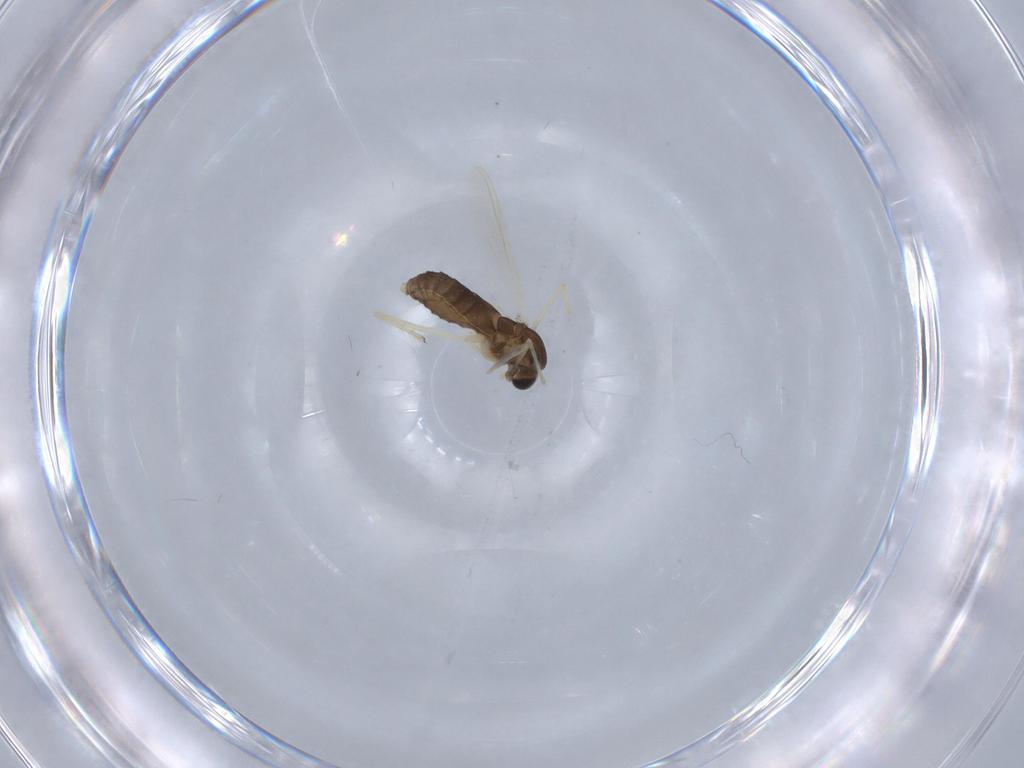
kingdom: Animalia
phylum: Arthropoda
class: Insecta
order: Diptera
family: Chironomidae
